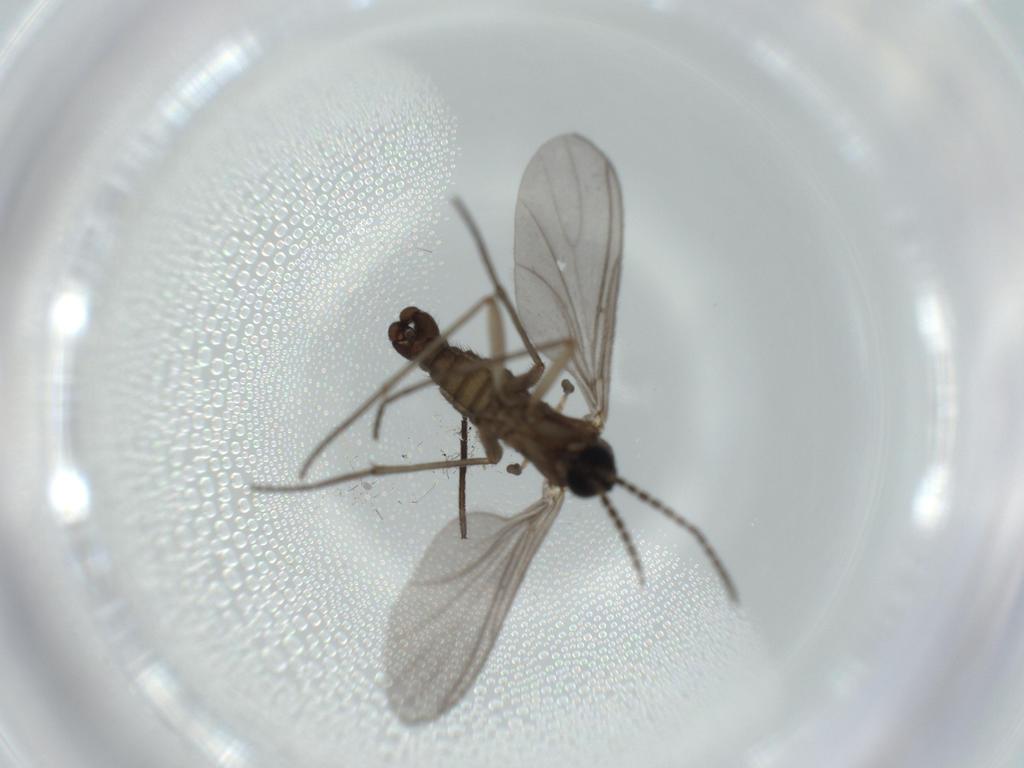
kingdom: Animalia
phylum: Arthropoda
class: Insecta
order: Diptera
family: Sciaridae
